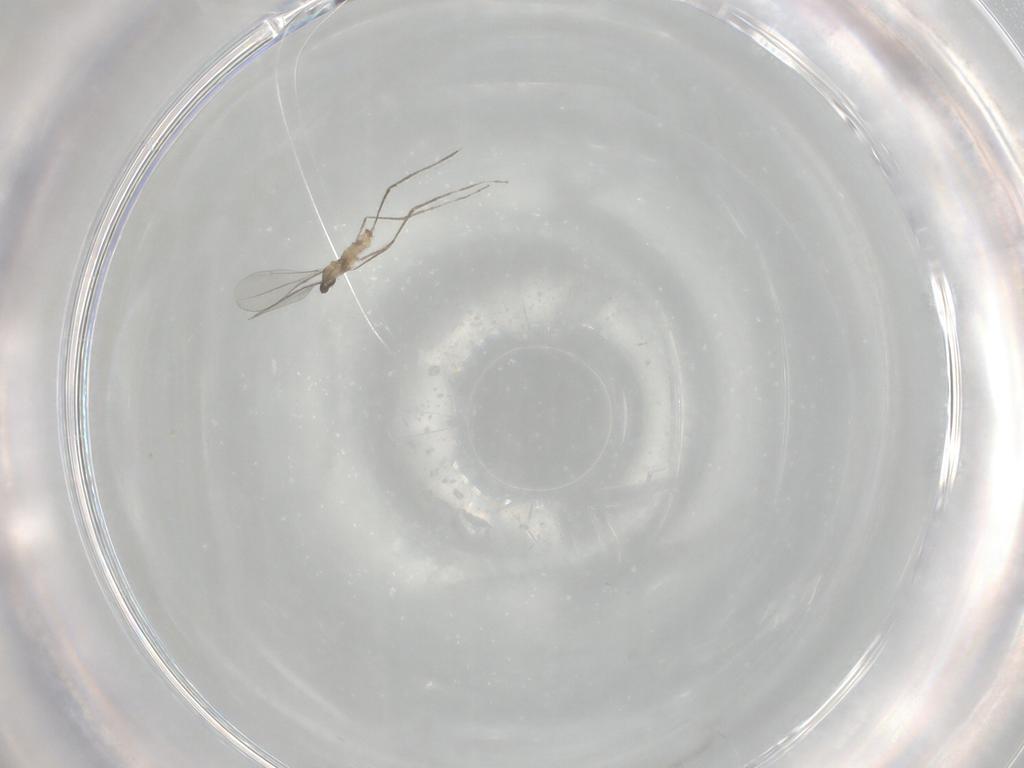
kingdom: Animalia
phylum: Arthropoda
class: Insecta
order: Diptera
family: Cecidomyiidae
